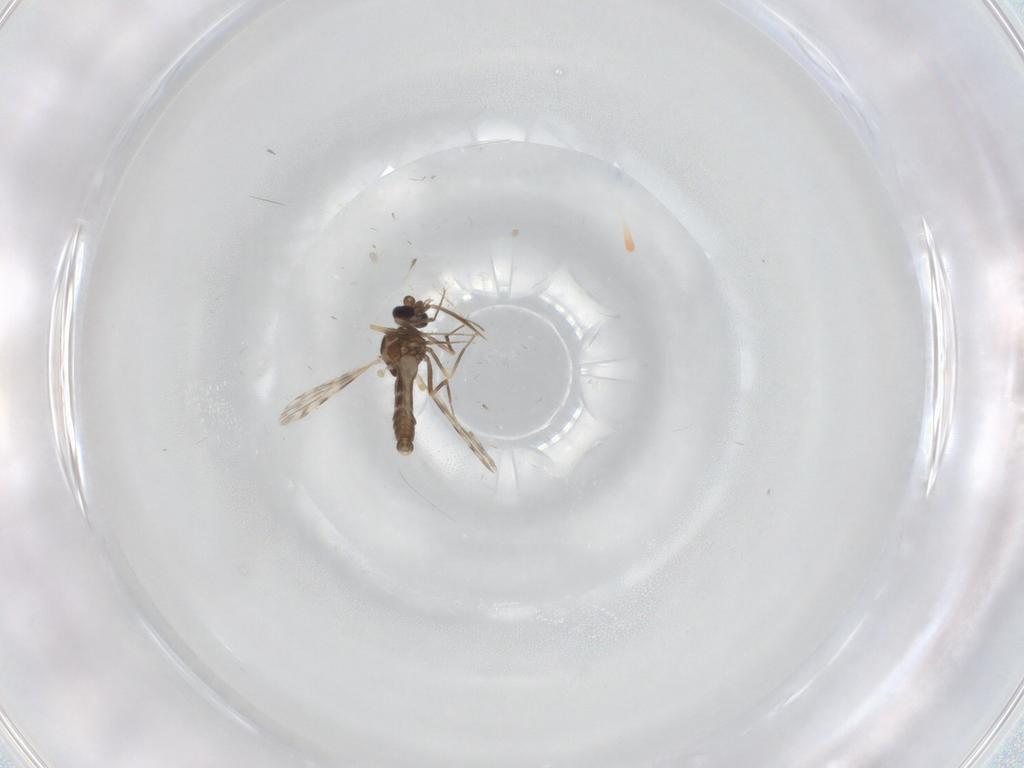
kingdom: Animalia
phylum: Arthropoda
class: Insecta
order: Diptera
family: Ceratopogonidae
